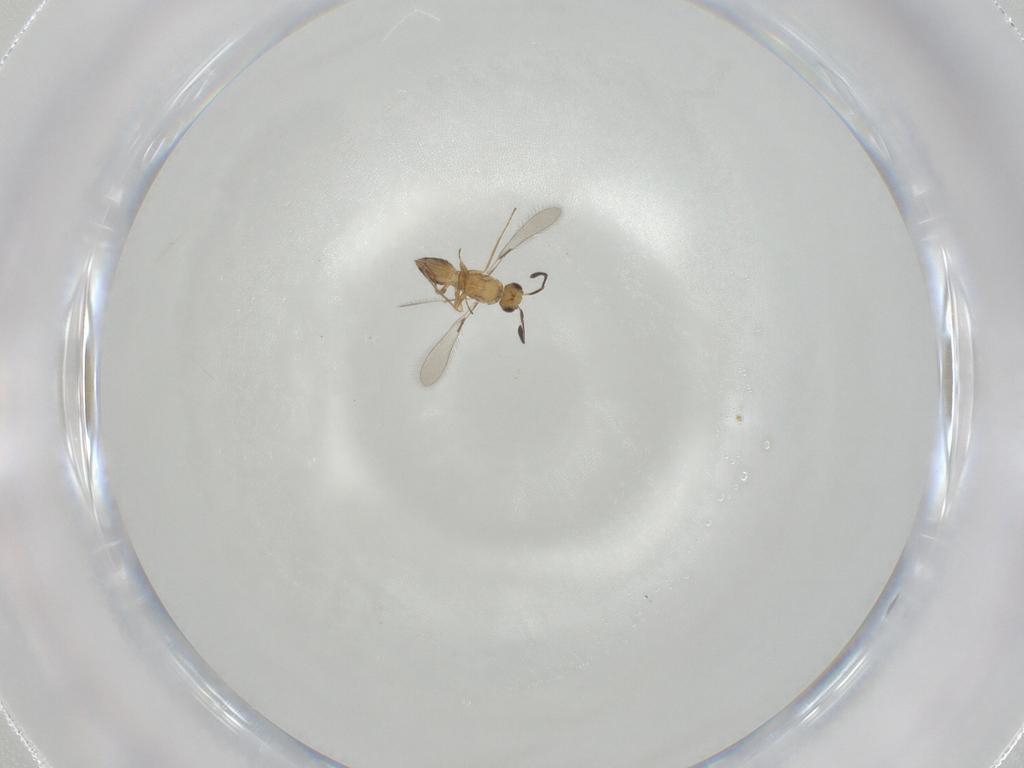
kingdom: Animalia
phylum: Arthropoda
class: Insecta
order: Hymenoptera
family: Mymaridae
